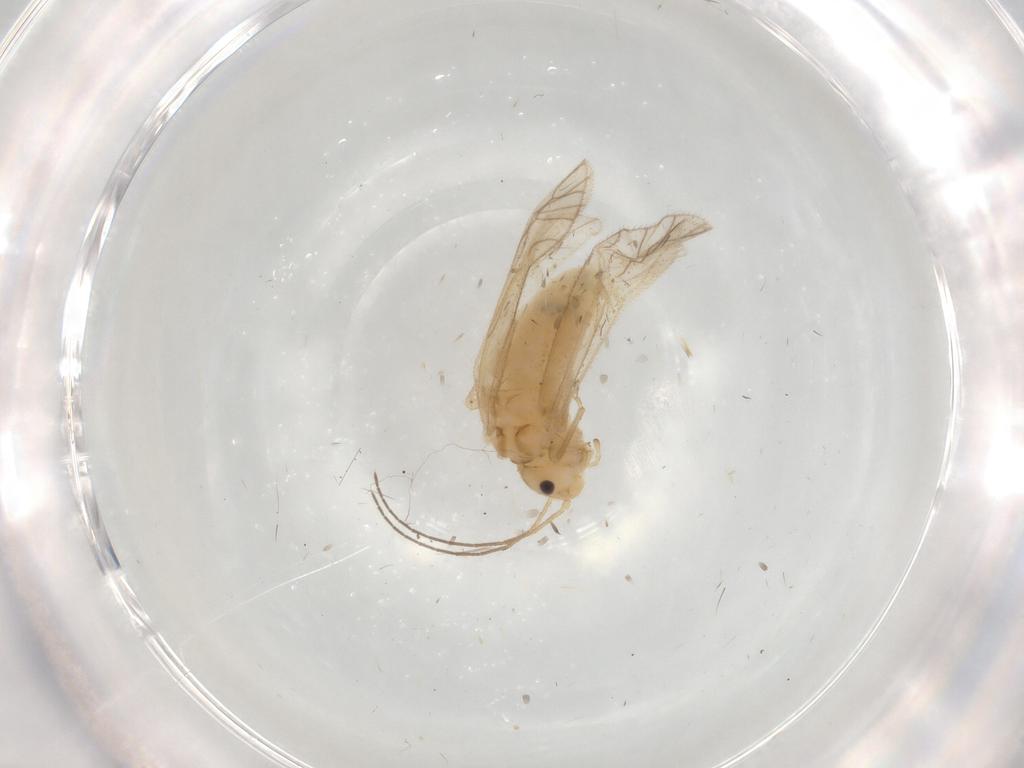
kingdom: Animalia
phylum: Arthropoda
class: Insecta
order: Psocodea
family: Caeciliusidae
